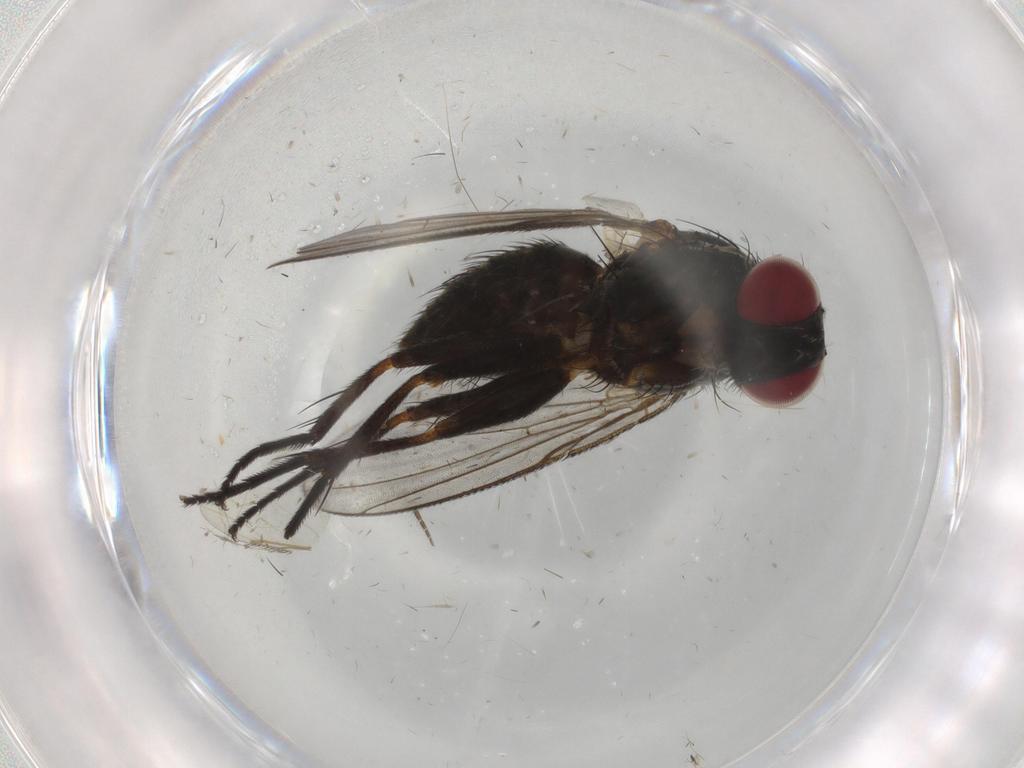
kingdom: Animalia
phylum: Arthropoda
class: Insecta
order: Diptera
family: Muscidae
